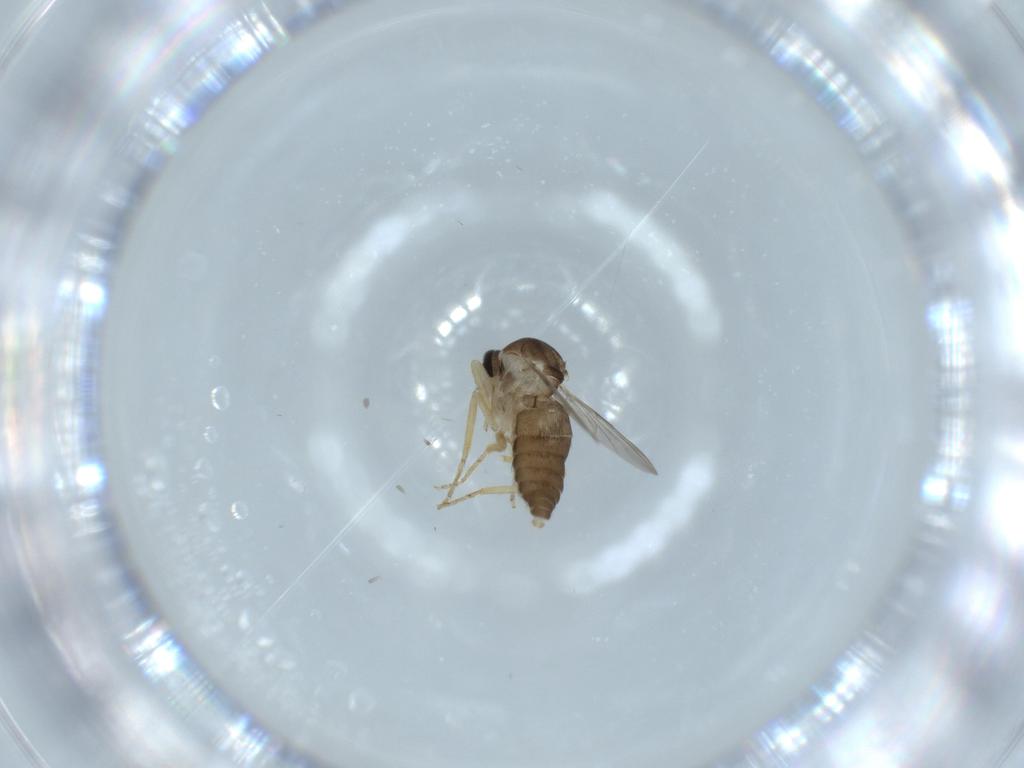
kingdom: Animalia
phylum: Arthropoda
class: Insecta
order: Diptera
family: Ceratopogonidae
